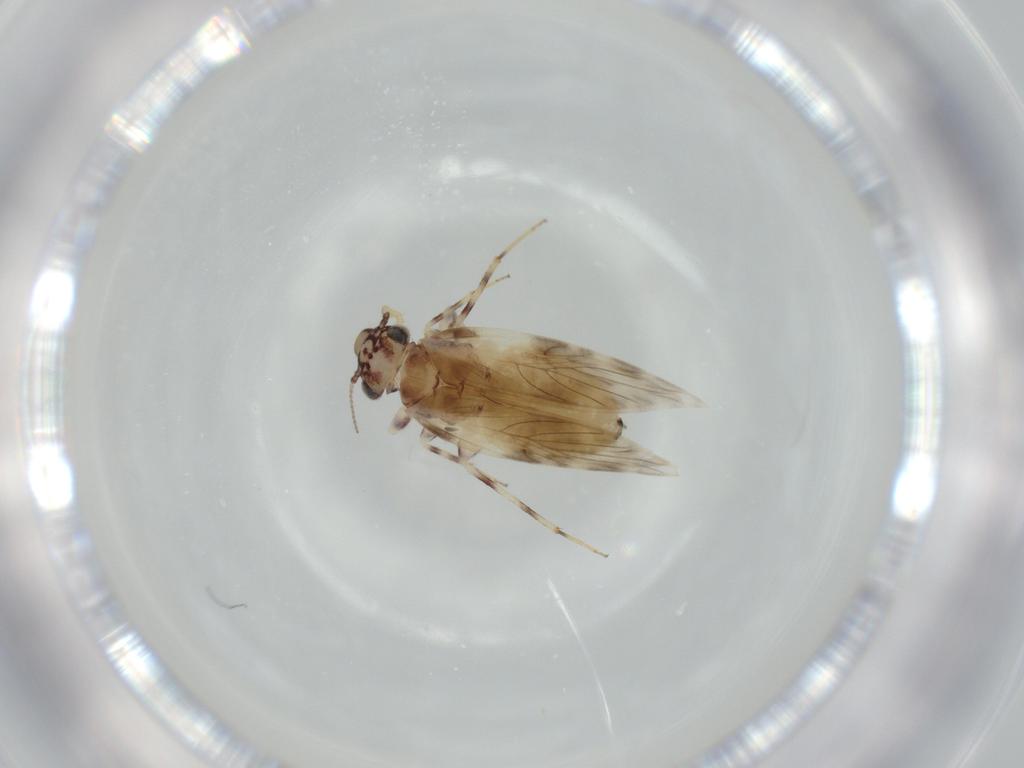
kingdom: Animalia
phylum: Arthropoda
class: Insecta
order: Psocodea
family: Lepidopsocidae
